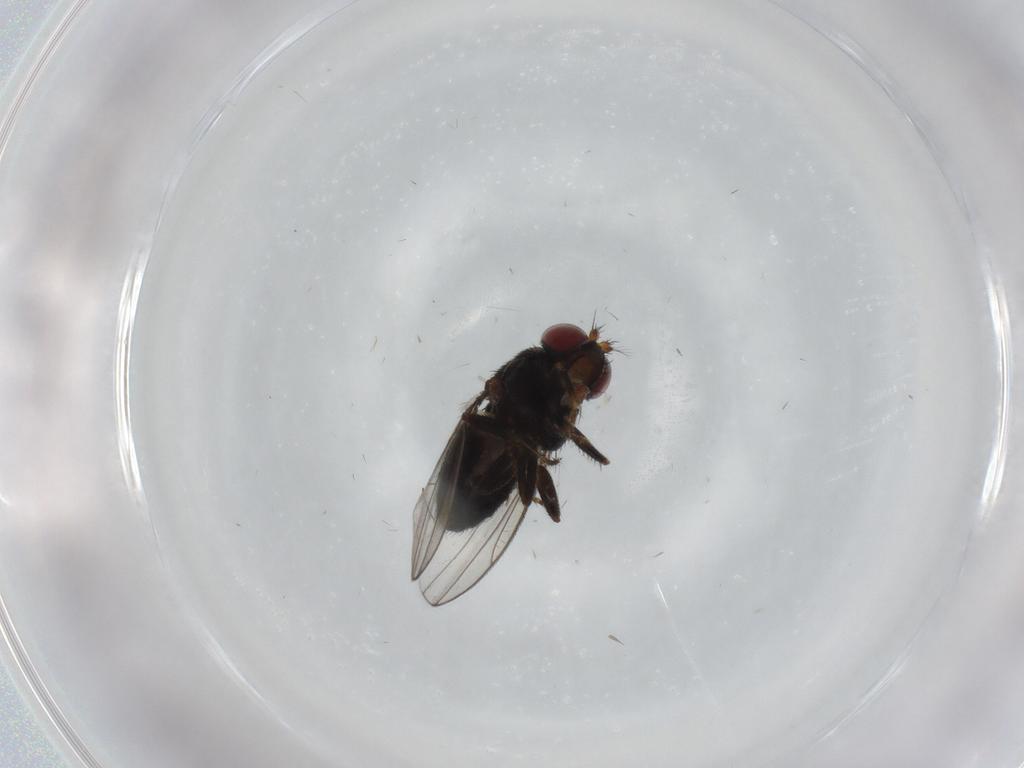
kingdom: Animalia
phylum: Arthropoda
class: Insecta
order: Diptera
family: Ephydridae
